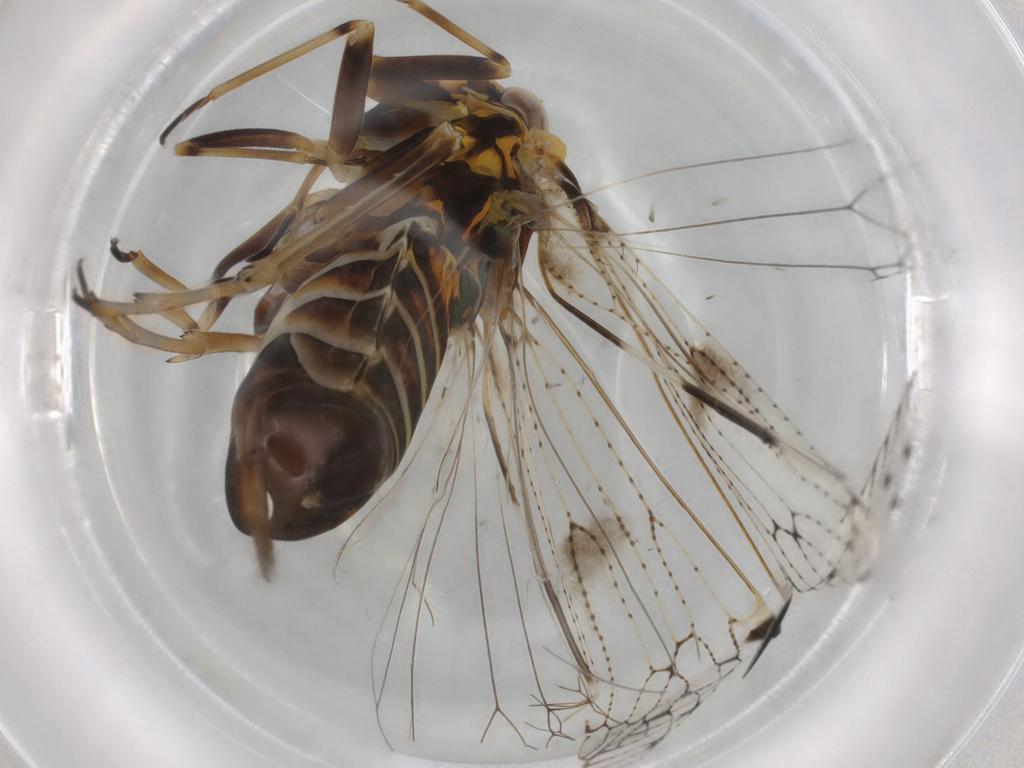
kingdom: Animalia
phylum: Arthropoda
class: Insecta
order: Hemiptera
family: Cixiidae
